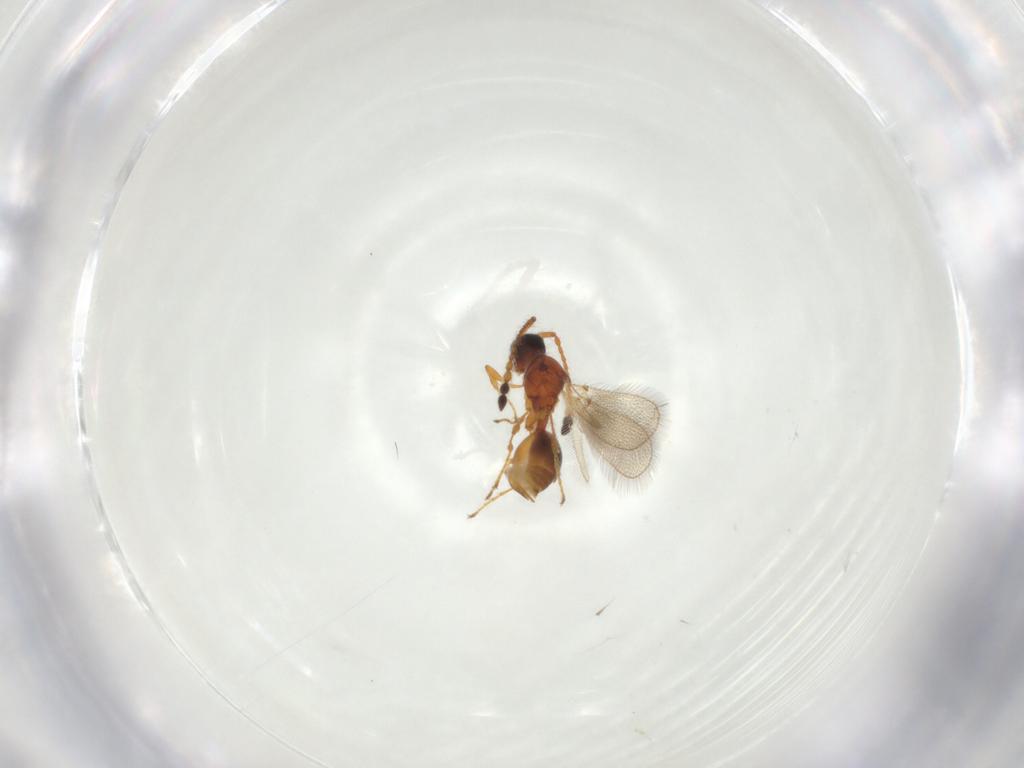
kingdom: Animalia
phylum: Arthropoda
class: Insecta
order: Hymenoptera
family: Diapriidae
